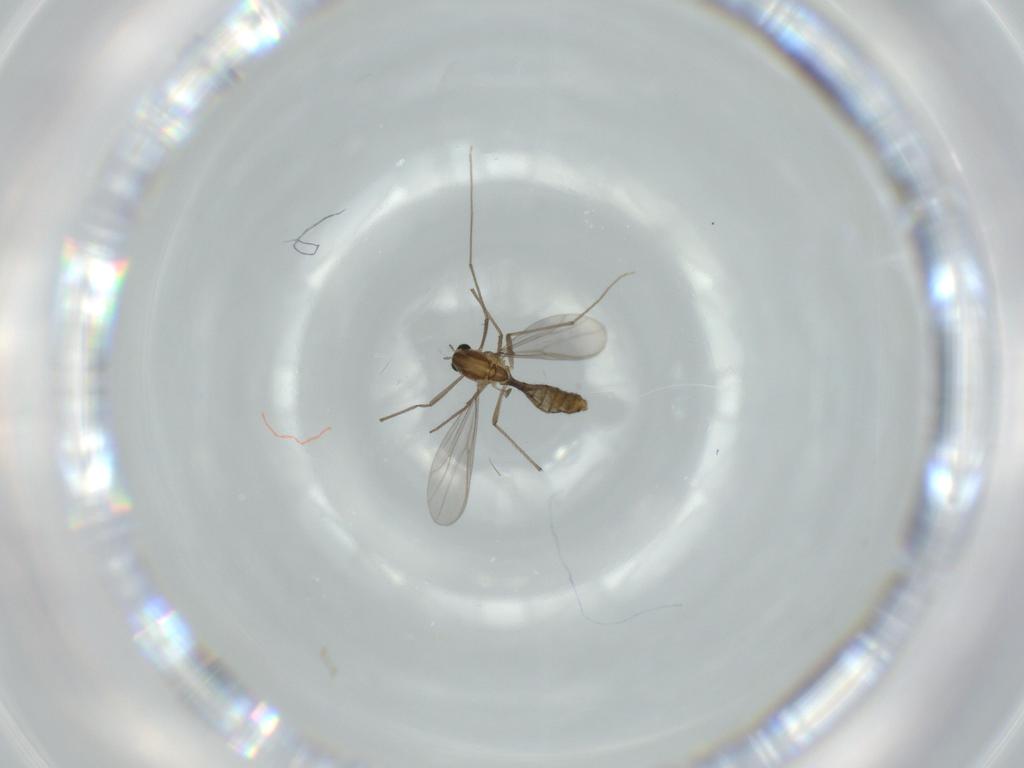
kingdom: Animalia
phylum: Arthropoda
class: Insecta
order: Diptera
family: Chironomidae
